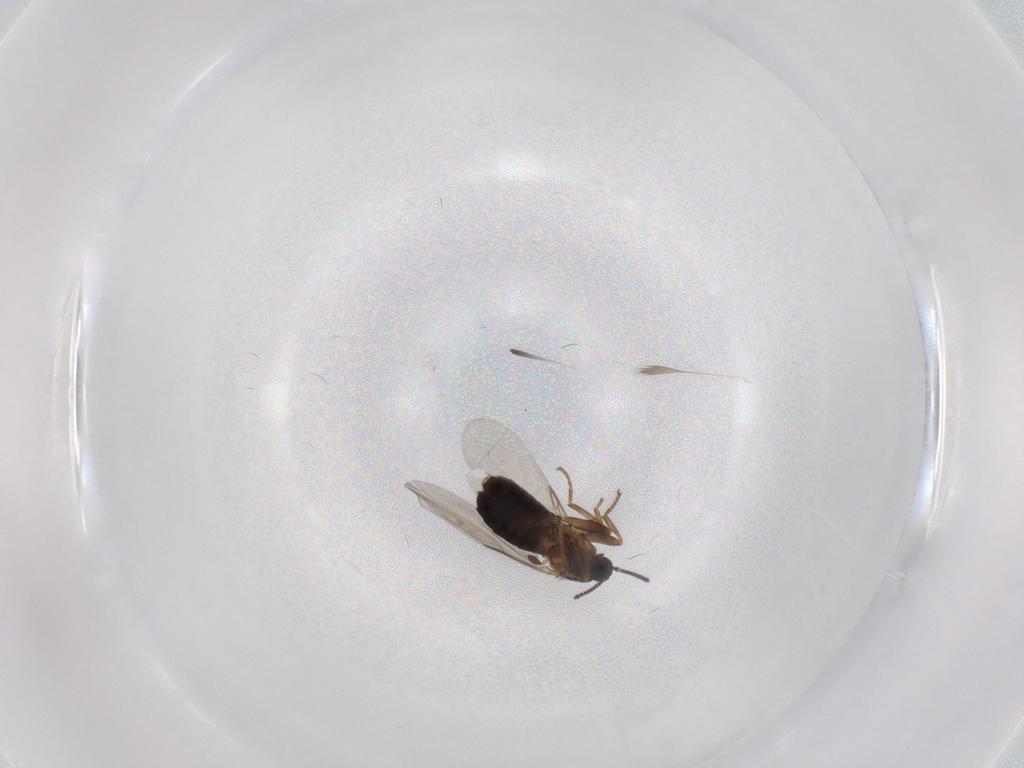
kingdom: Animalia
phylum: Arthropoda
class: Insecta
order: Diptera
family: Scatopsidae
